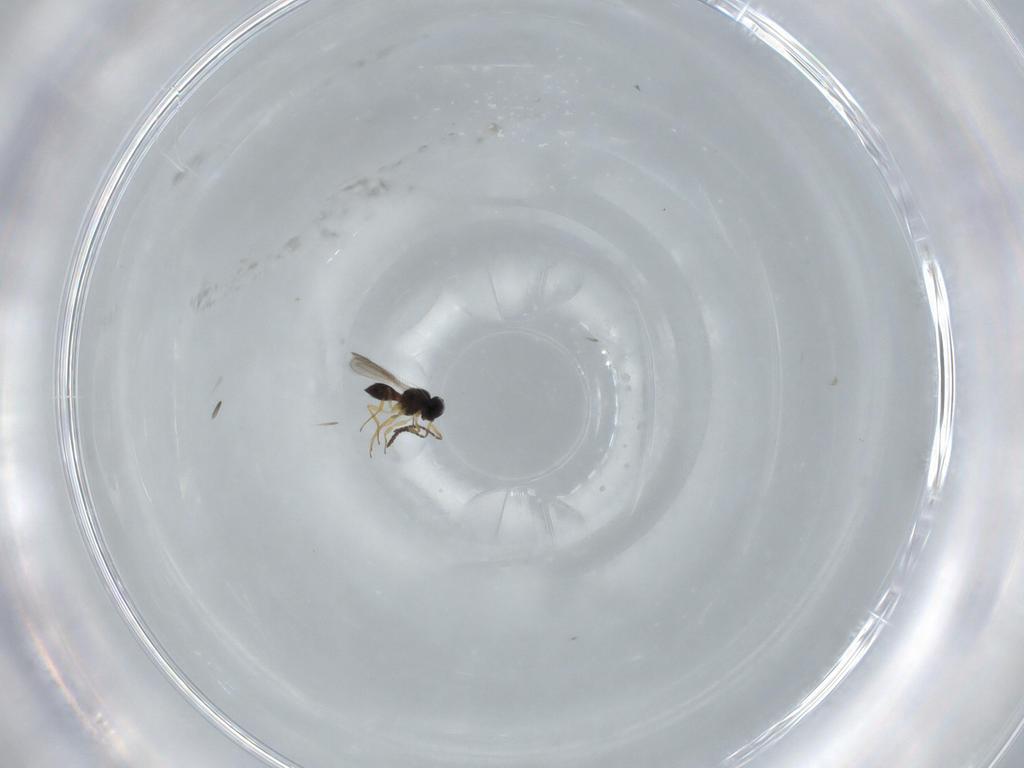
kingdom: Animalia
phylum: Arthropoda
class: Insecta
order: Hymenoptera
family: Scelionidae
